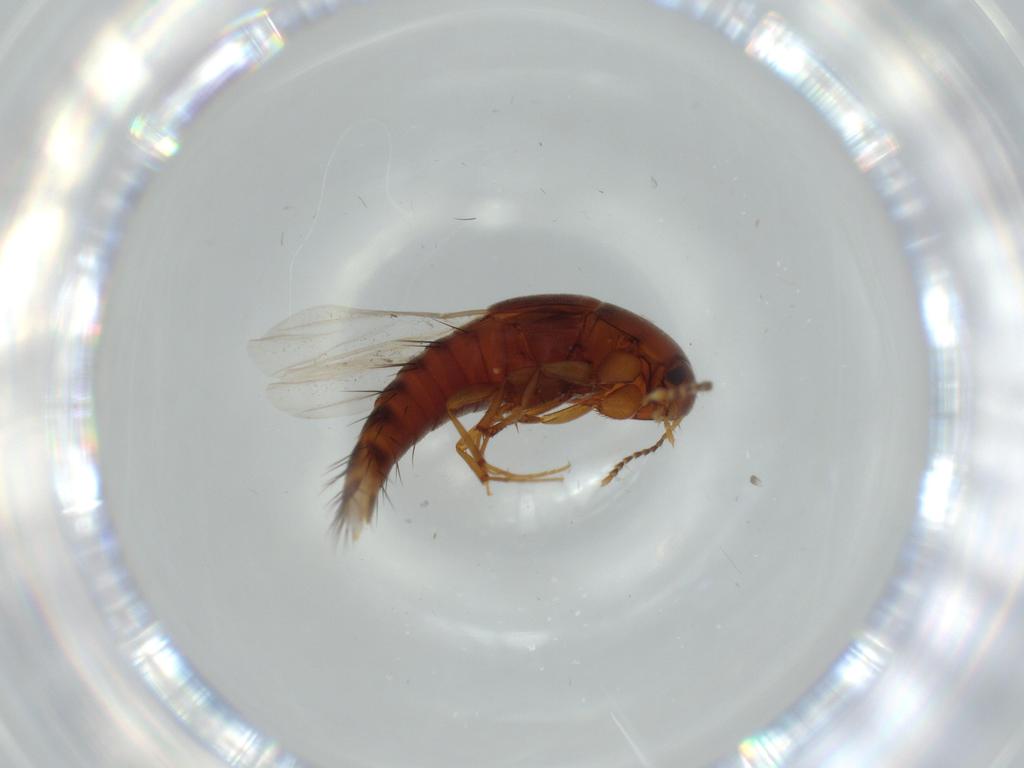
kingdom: Animalia
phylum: Arthropoda
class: Insecta
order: Coleoptera
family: Staphylinidae
